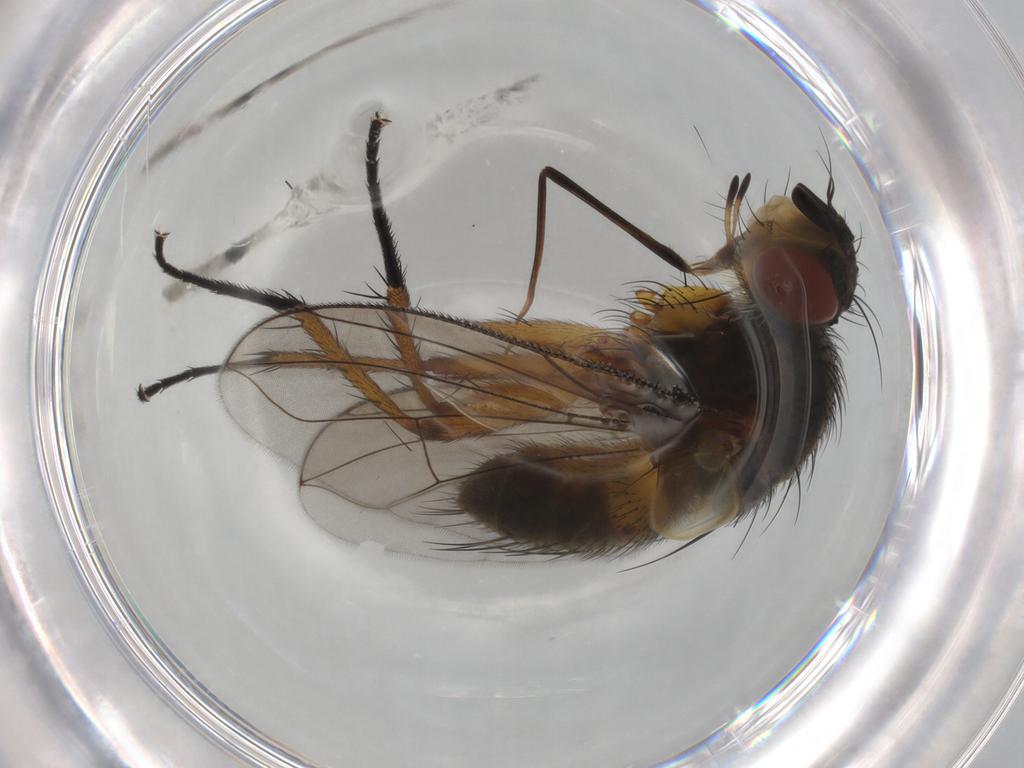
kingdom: Animalia
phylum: Arthropoda
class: Insecta
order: Diptera
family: Tachinidae
